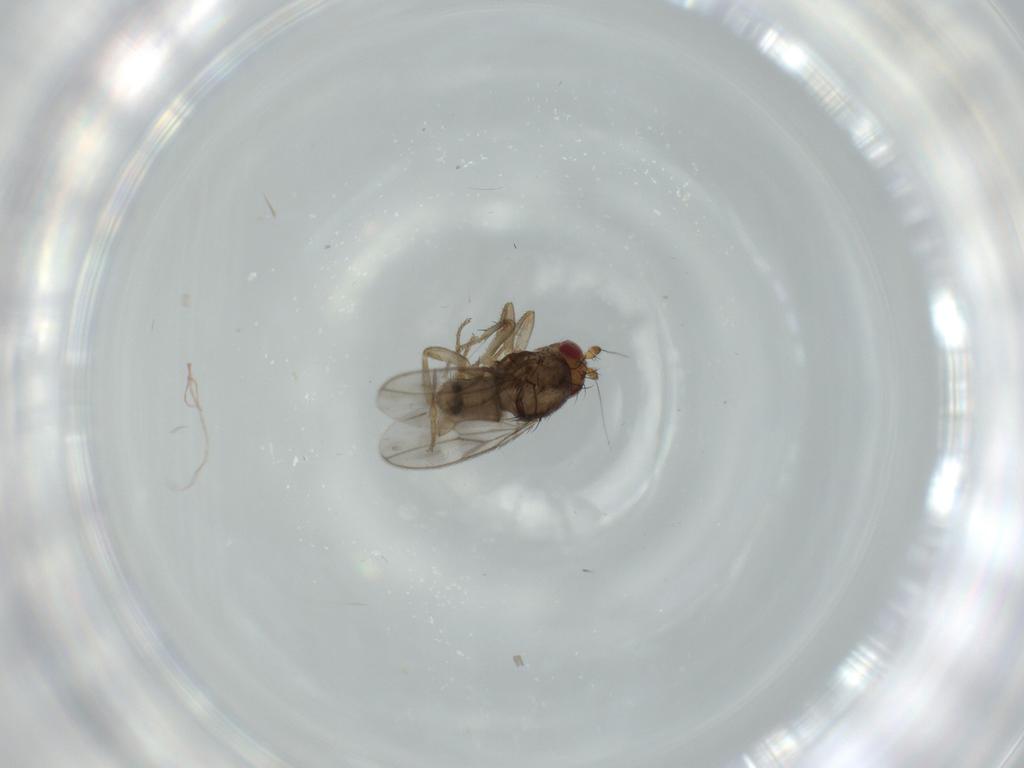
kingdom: Animalia
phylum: Arthropoda
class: Insecta
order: Diptera
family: Sphaeroceridae
